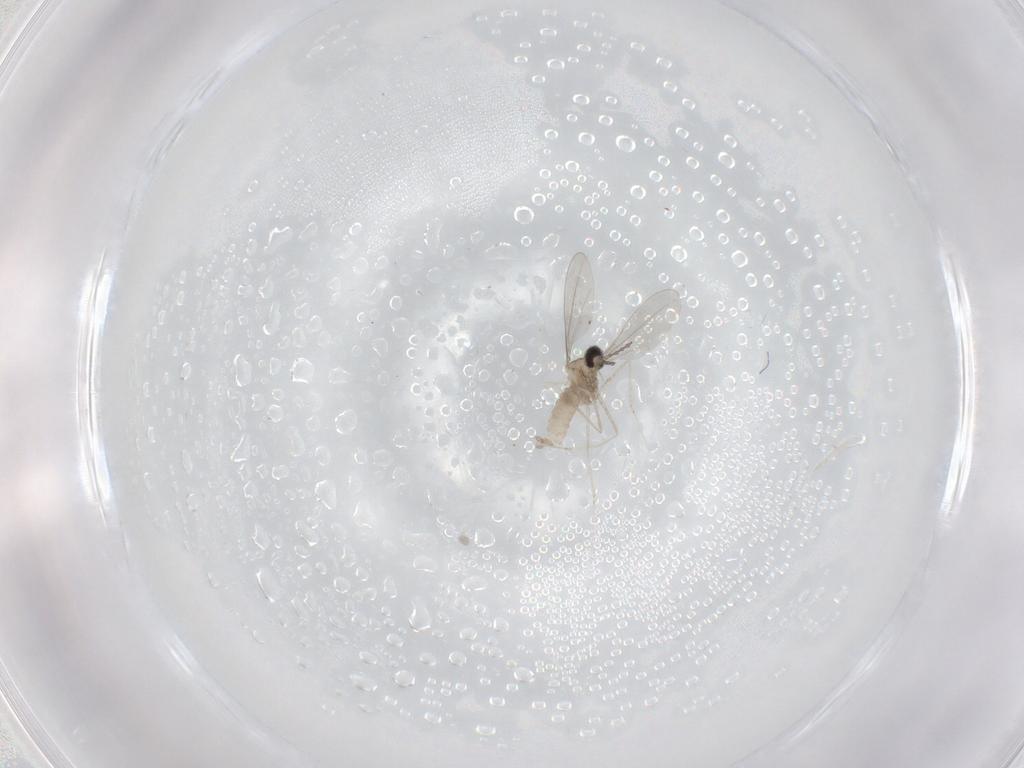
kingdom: Animalia
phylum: Arthropoda
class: Insecta
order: Diptera
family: Cecidomyiidae
